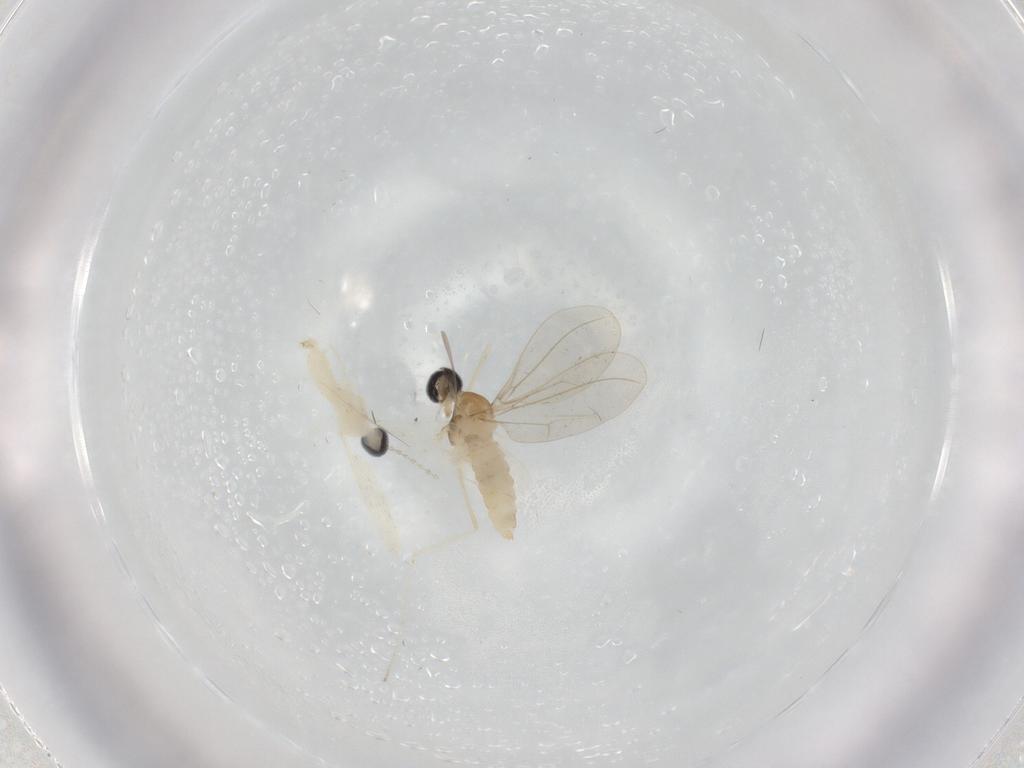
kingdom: Animalia
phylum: Arthropoda
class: Insecta
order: Diptera
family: Cecidomyiidae
